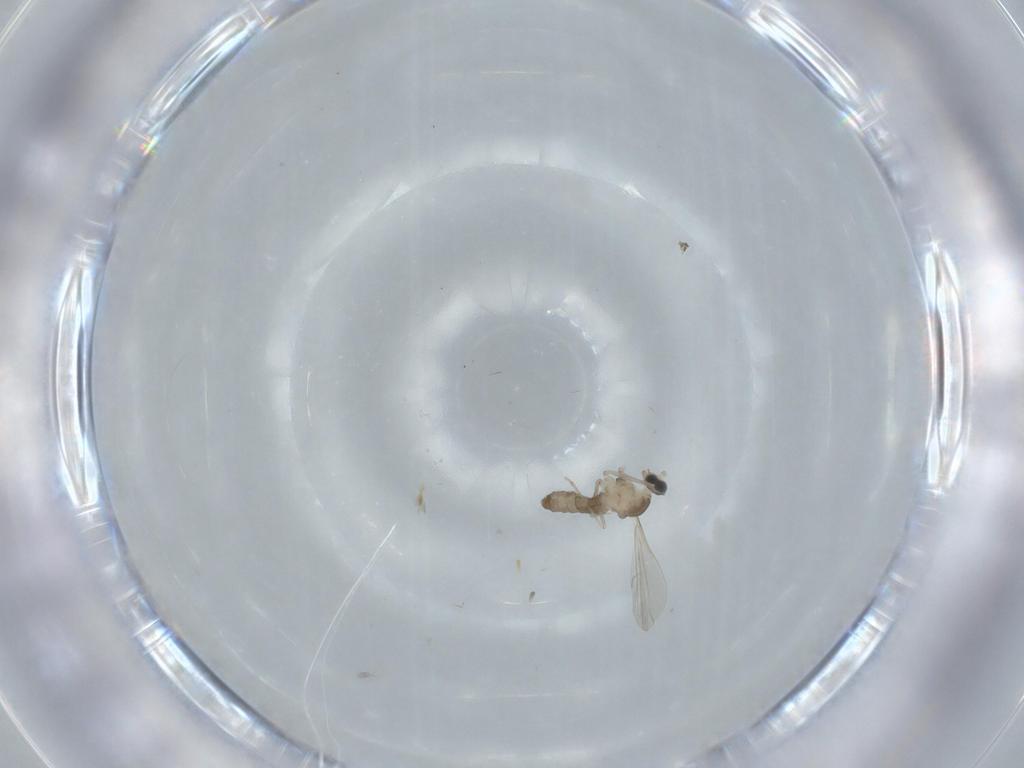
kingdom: Animalia
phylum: Arthropoda
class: Insecta
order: Diptera
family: Cecidomyiidae
